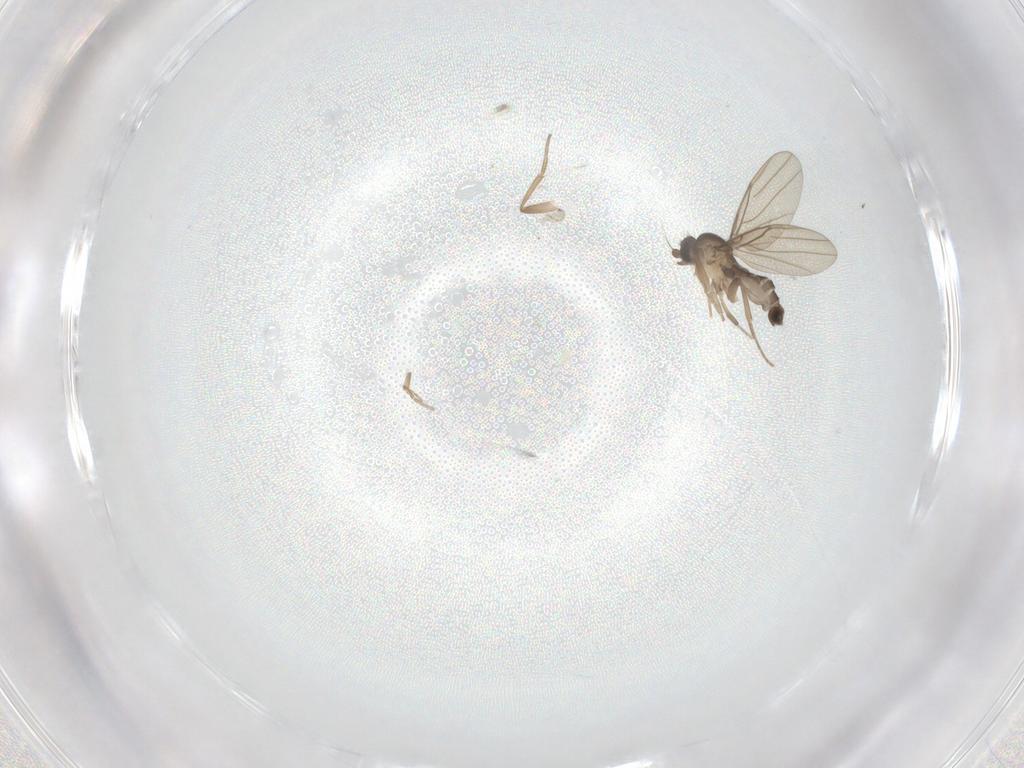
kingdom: Animalia
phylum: Arthropoda
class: Insecta
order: Diptera
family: Phoridae
